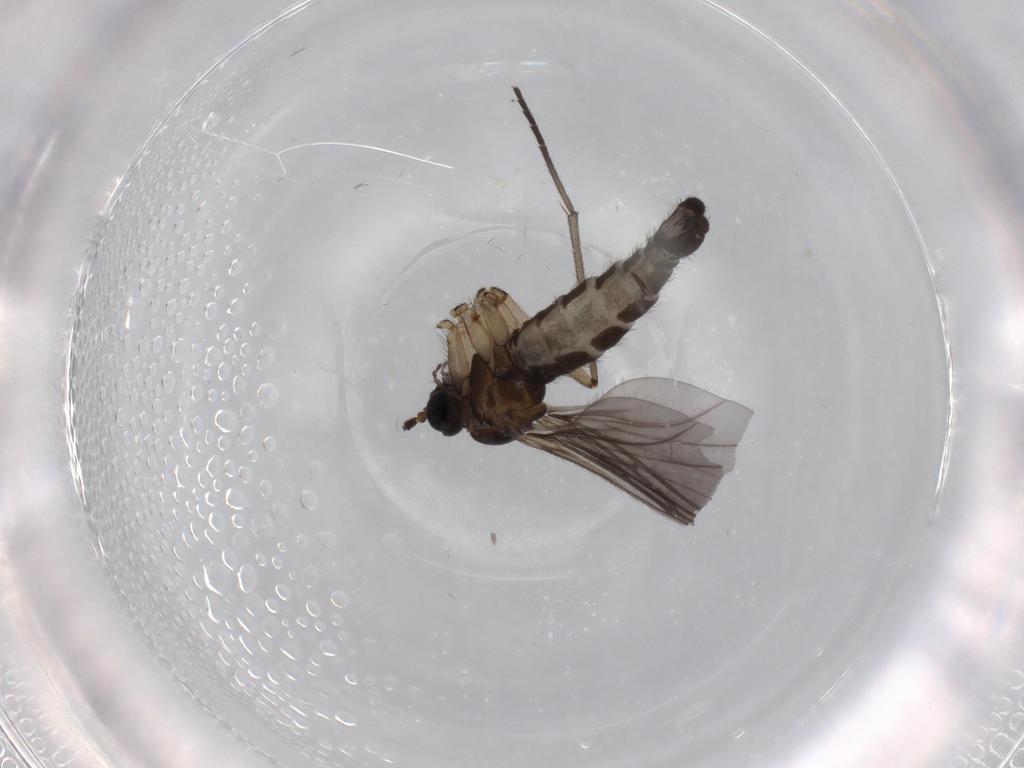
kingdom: Animalia
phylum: Arthropoda
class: Insecta
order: Diptera
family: Sciaridae
